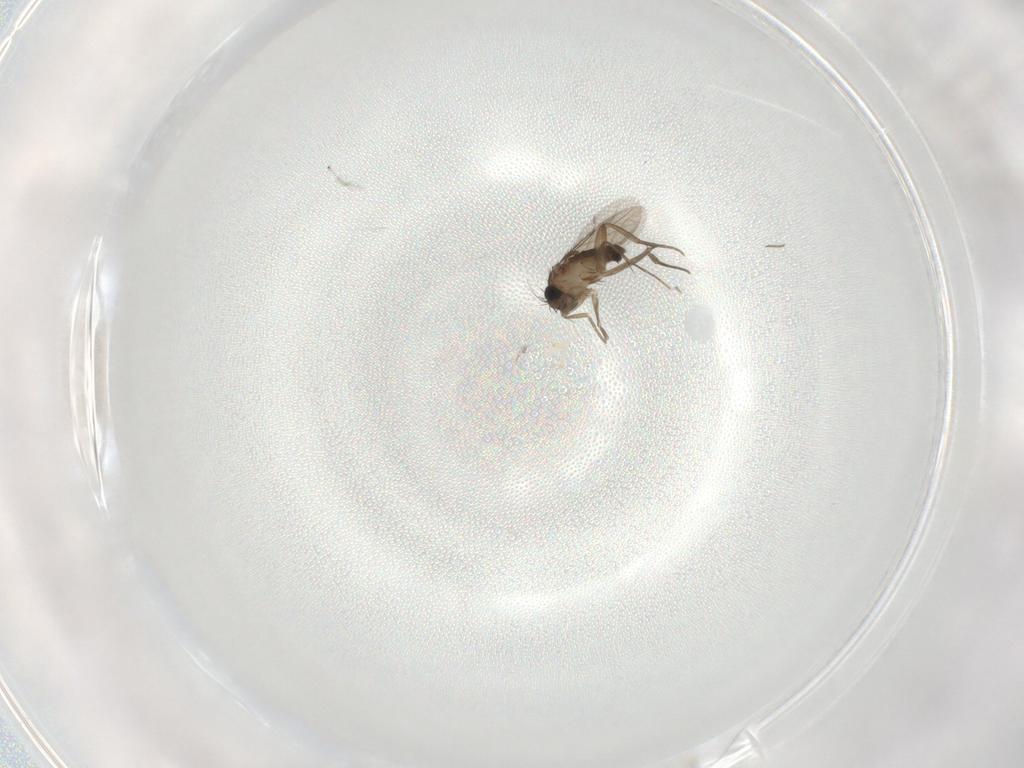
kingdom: Animalia
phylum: Arthropoda
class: Insecta
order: Diptera
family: Phoridae
